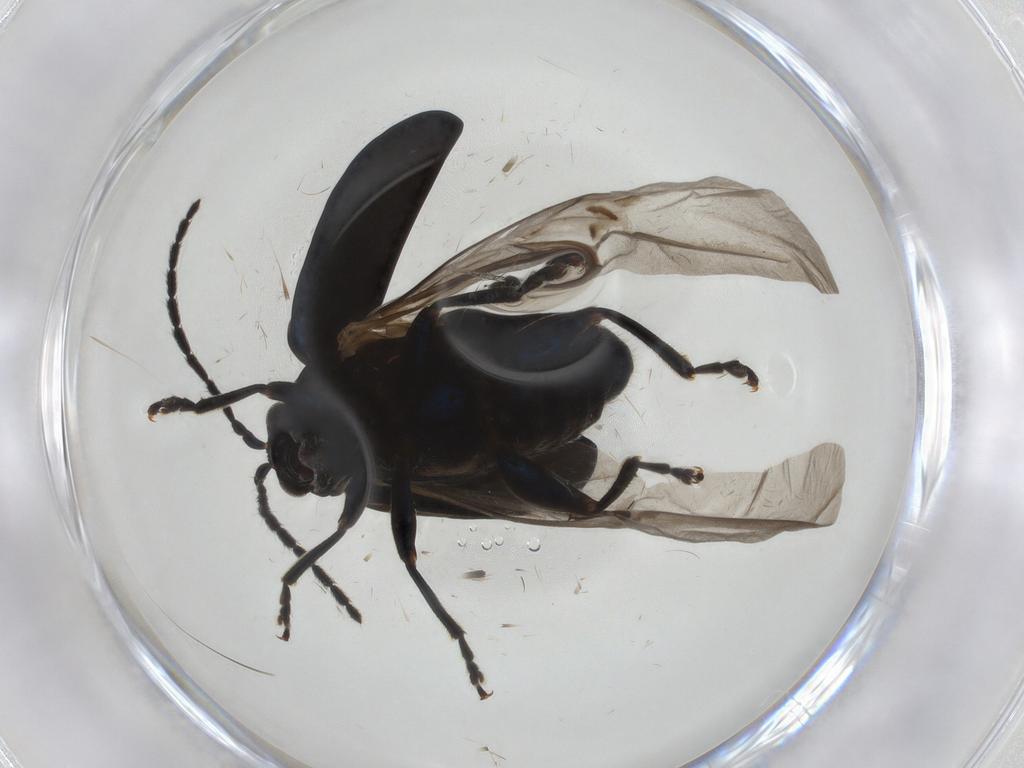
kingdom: Animalia
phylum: Arthropoda
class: Insecta
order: Coleoptera
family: Chrysomelidae
